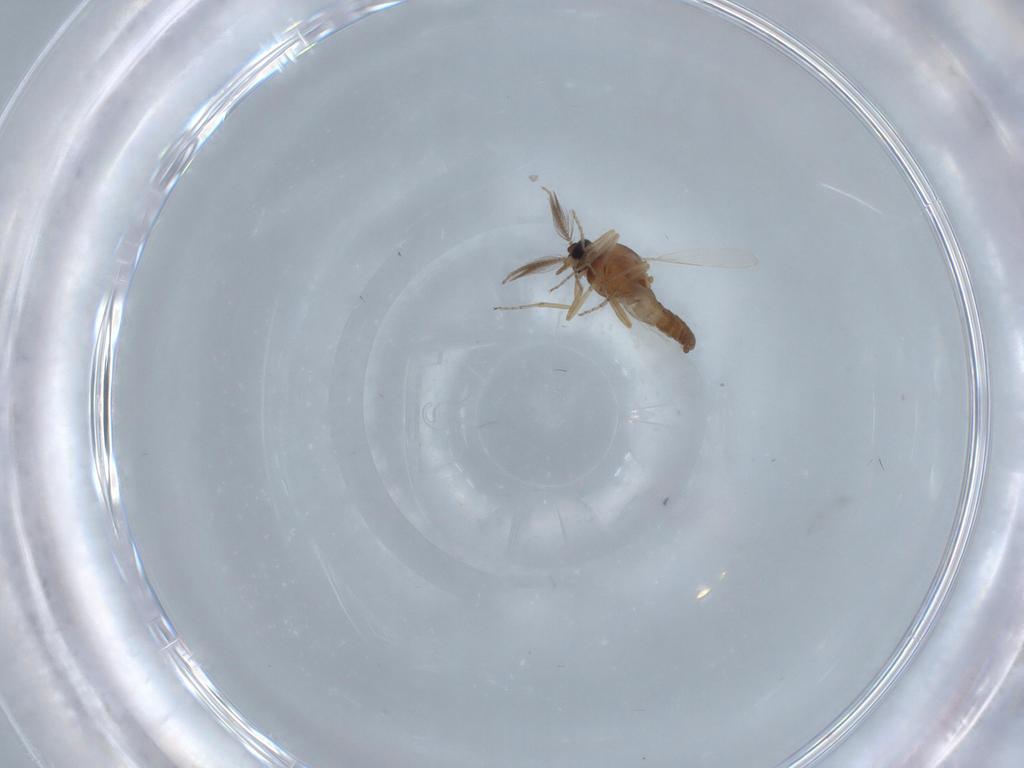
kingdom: Animalia
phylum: Arthropoda
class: Insecta
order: Diptera
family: Ceratopogonidae
